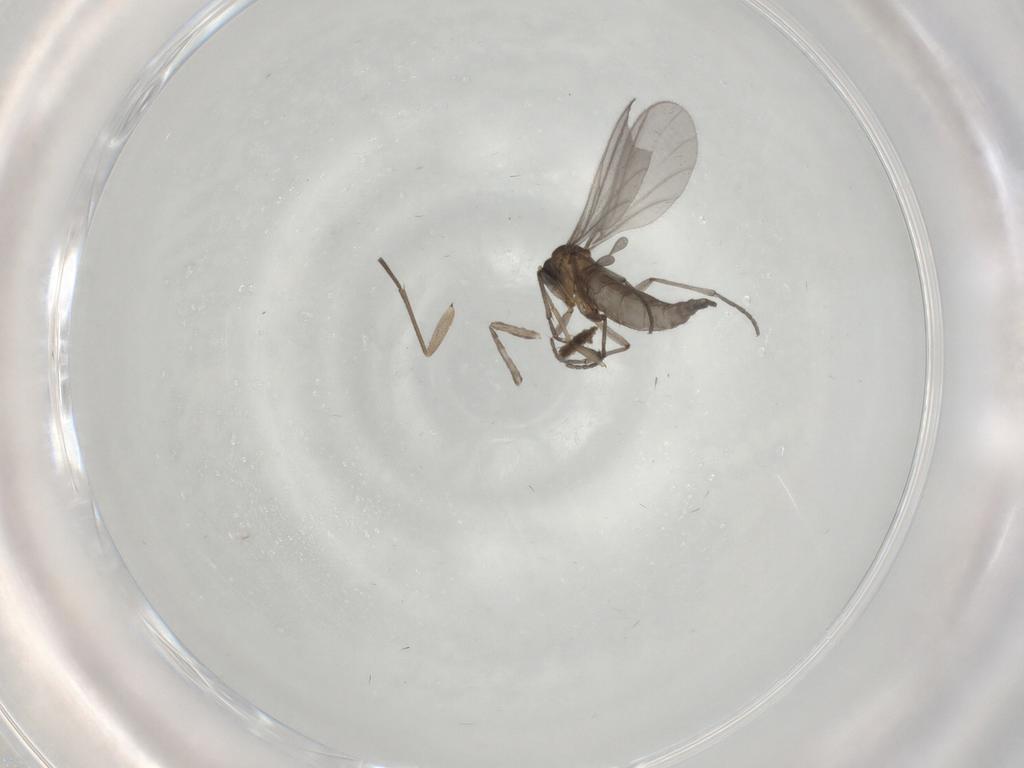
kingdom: Animalia
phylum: Arthropoda
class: Insecta
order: Diptera
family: Sciaridae
